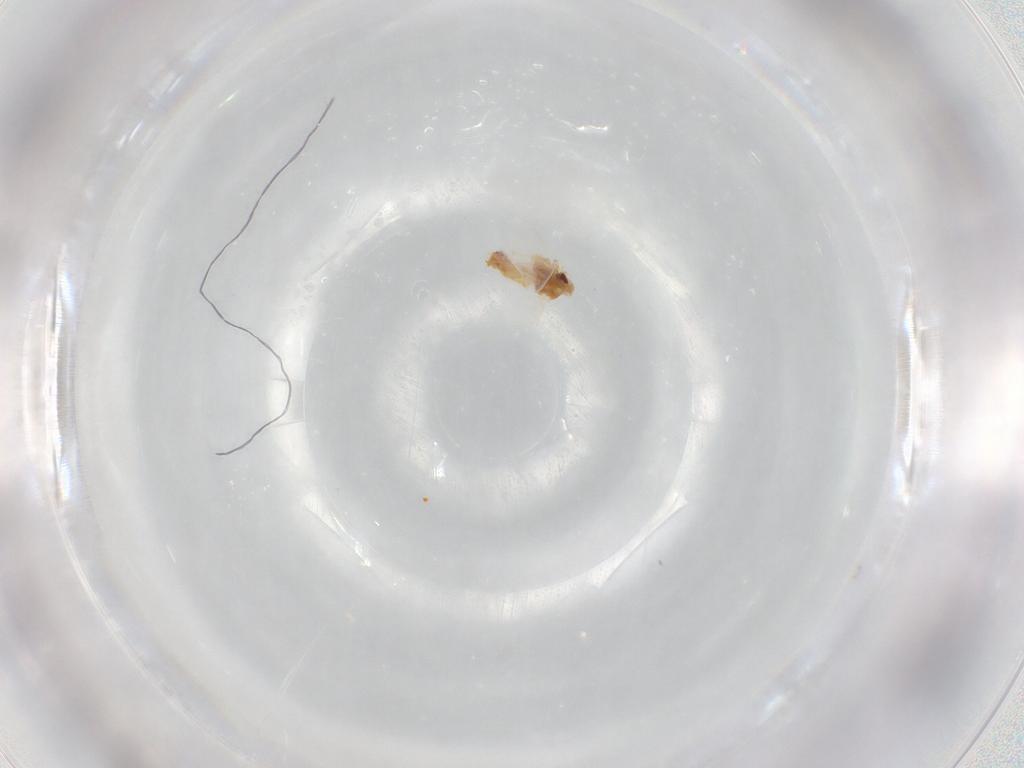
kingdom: Animalia
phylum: Arthropoda
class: Insecta
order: Hemiptera
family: Aleyrodidae
